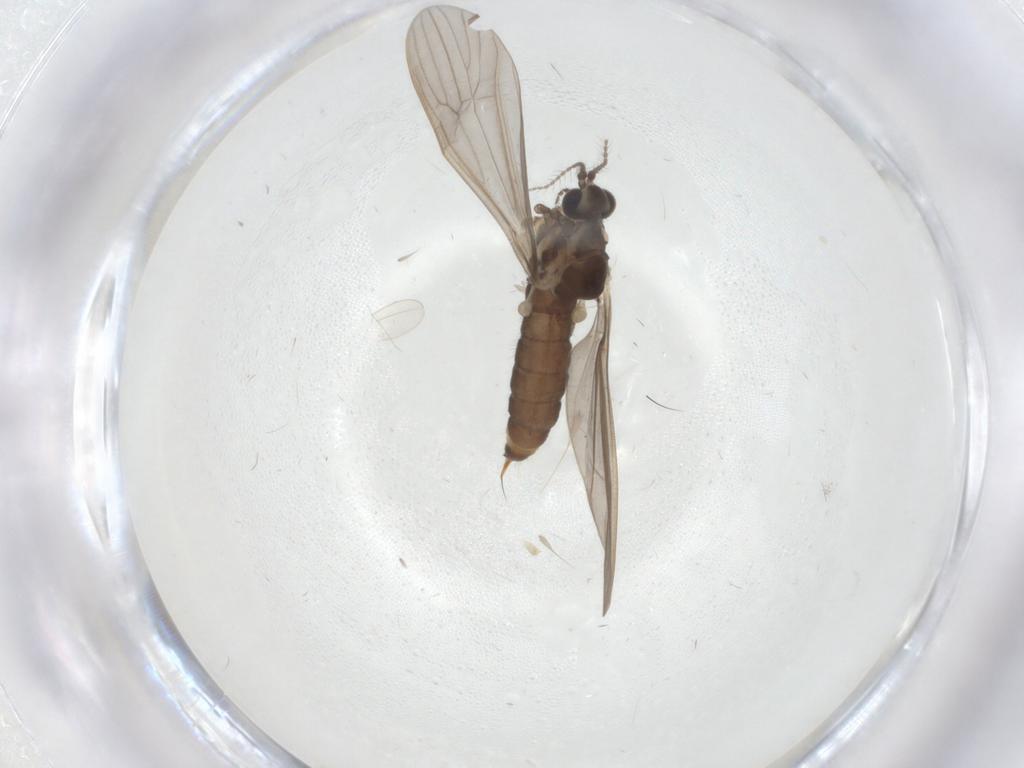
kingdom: Animalia
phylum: Arthropoda
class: Insecta
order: Diptera
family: Limoniidae
